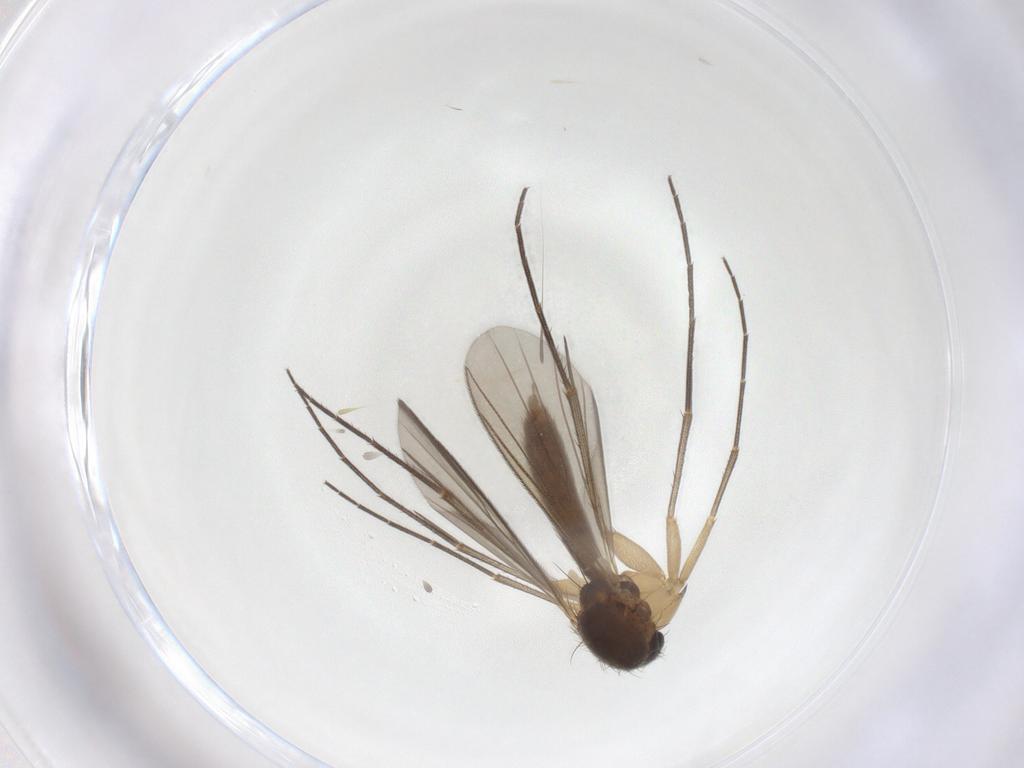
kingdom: Animalia
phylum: Arthropoda
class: Insecta
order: Diptera
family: Mycetophilidae
